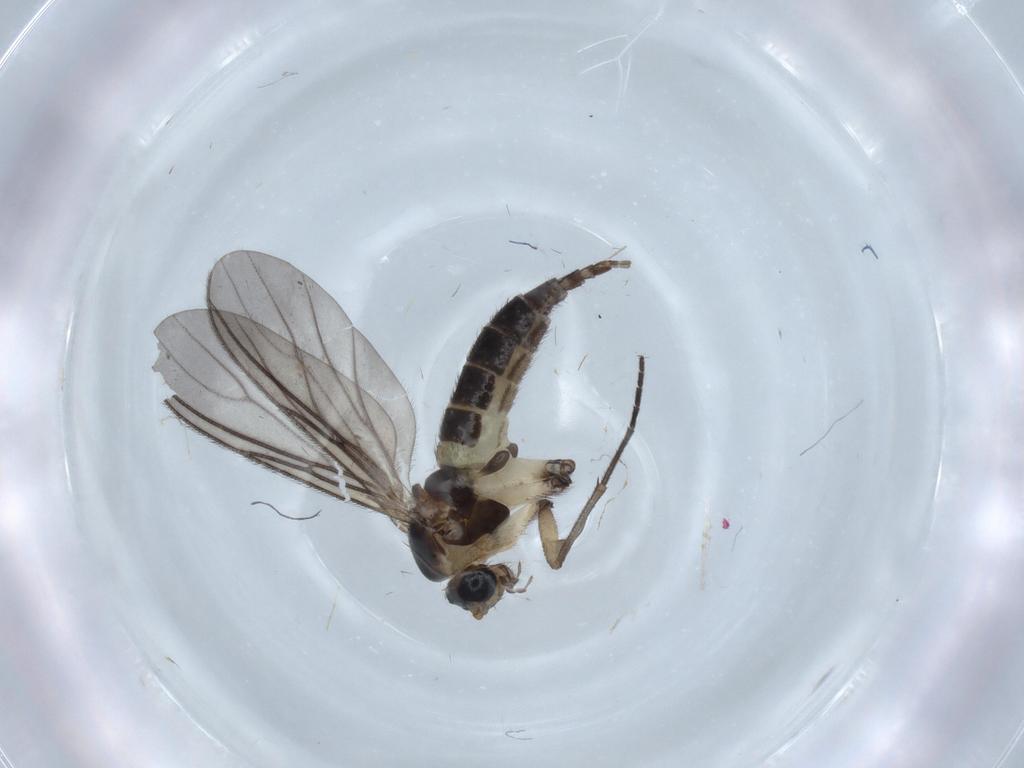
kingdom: Animalia
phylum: Arthropoda
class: Insecta
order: Diptera
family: Sciaridae
